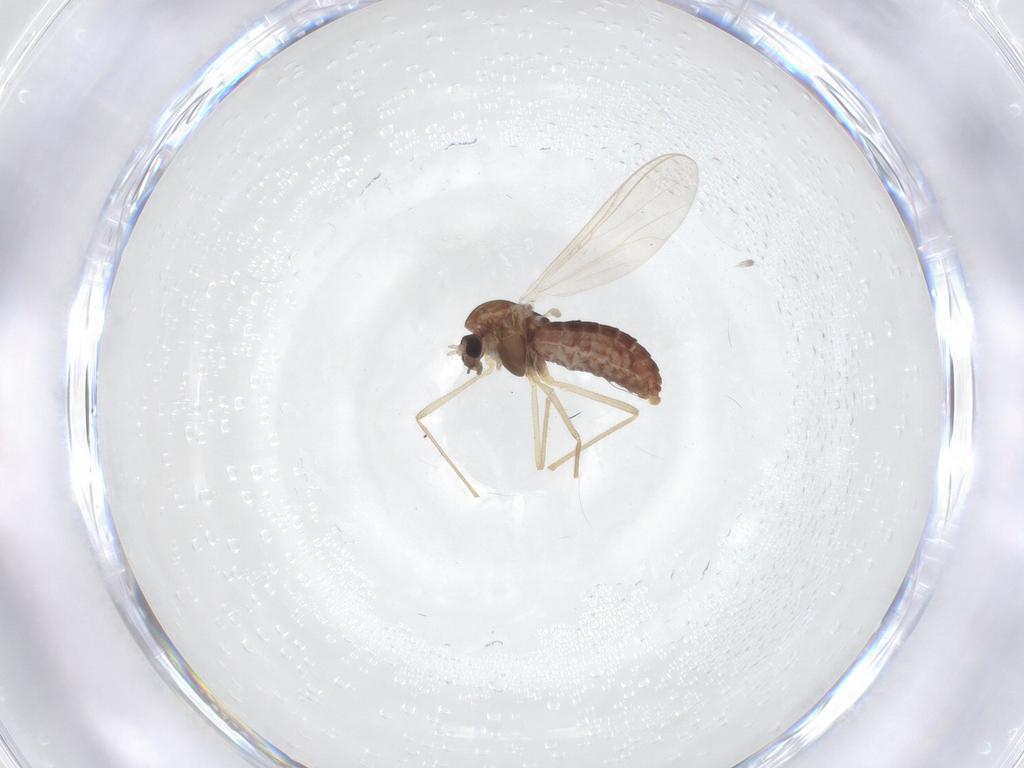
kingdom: Animalia
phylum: Arthropoda
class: Insecta
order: Diptera
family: Chironomidae
